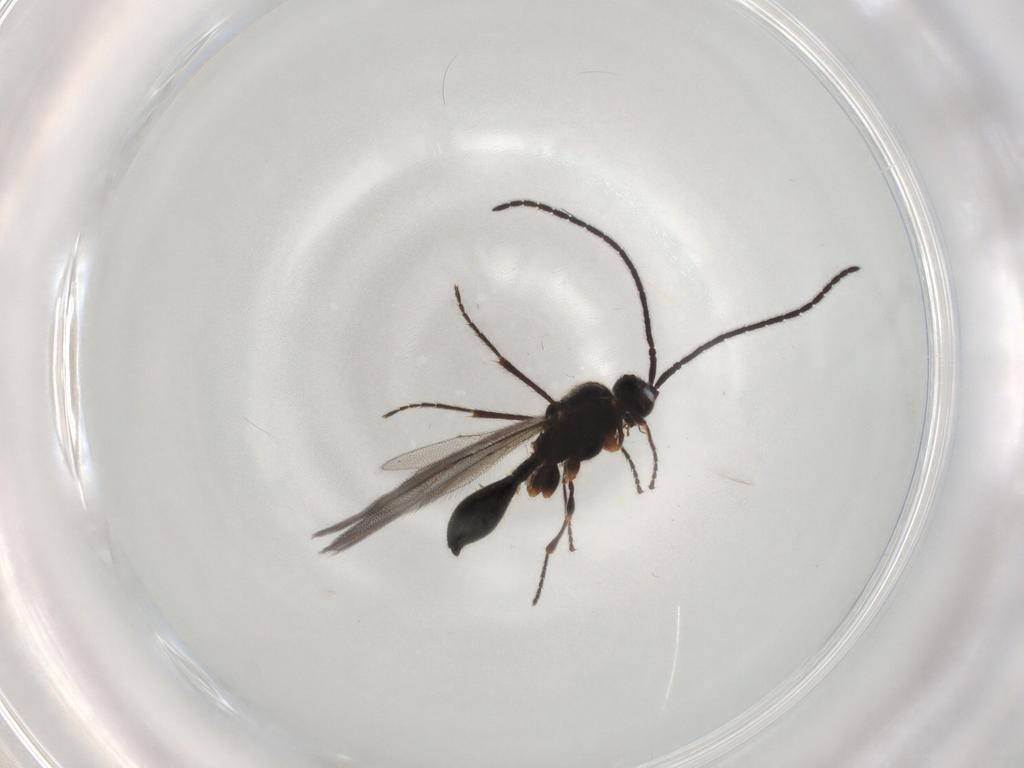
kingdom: Animalia
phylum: Arthropoda
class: Insecta
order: Hymenoptera
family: Diapriidae
